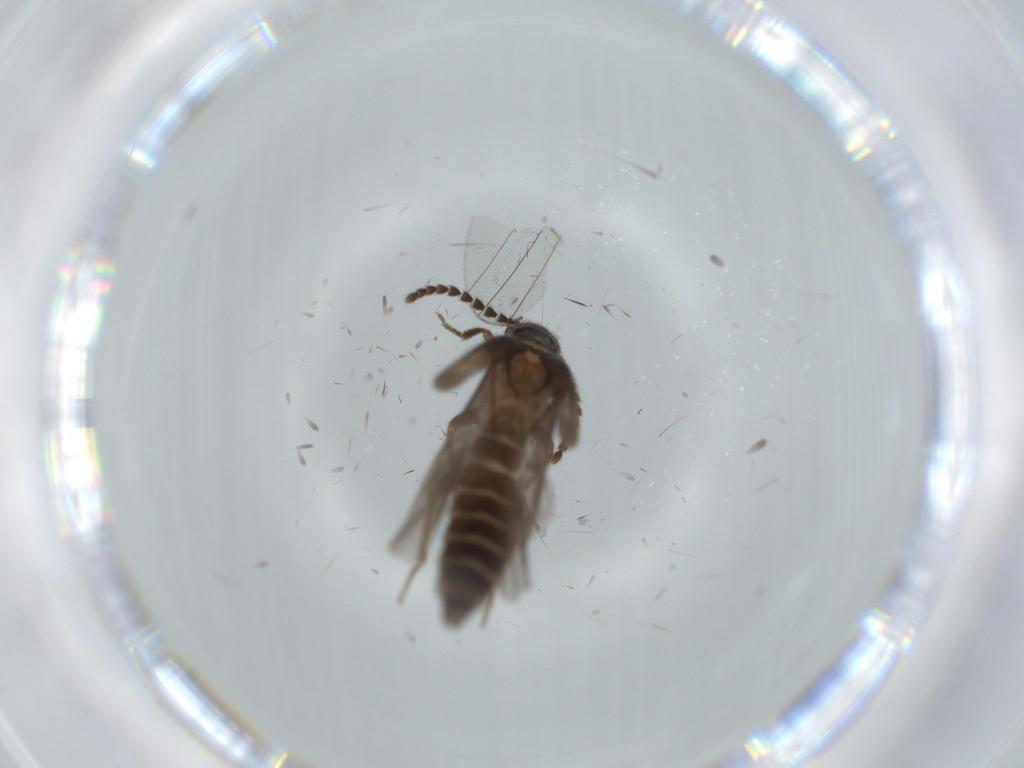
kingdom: Animalia
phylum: Arthropoda
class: Insecta
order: Coleoptera
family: Omethidae
